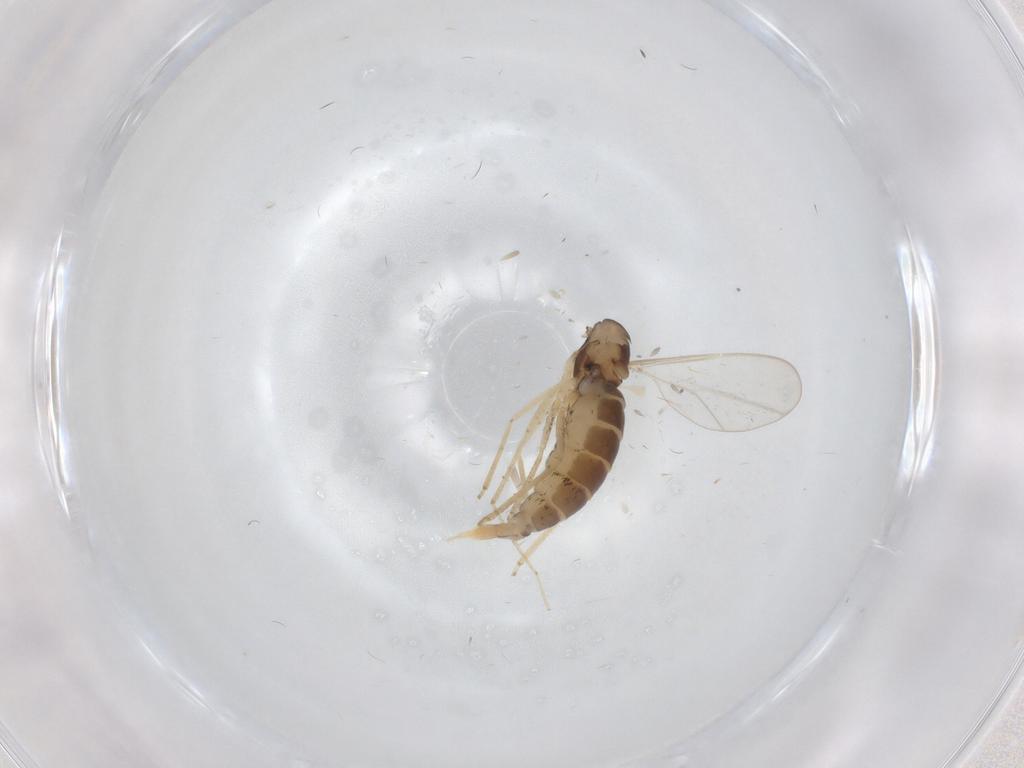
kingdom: Animalia
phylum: Arthropoda
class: Insecta
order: Diptera
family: Cecidomyiidae
